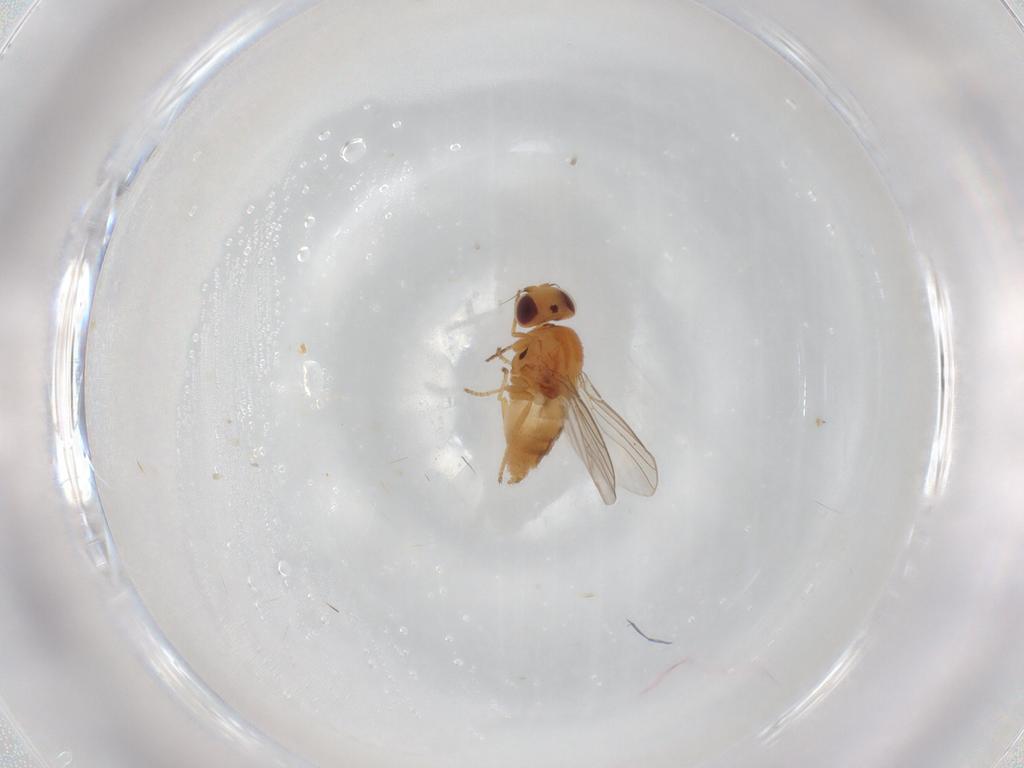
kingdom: Animalia
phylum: Arthropoda
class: Insecta
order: Diptera
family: Chloropidae
